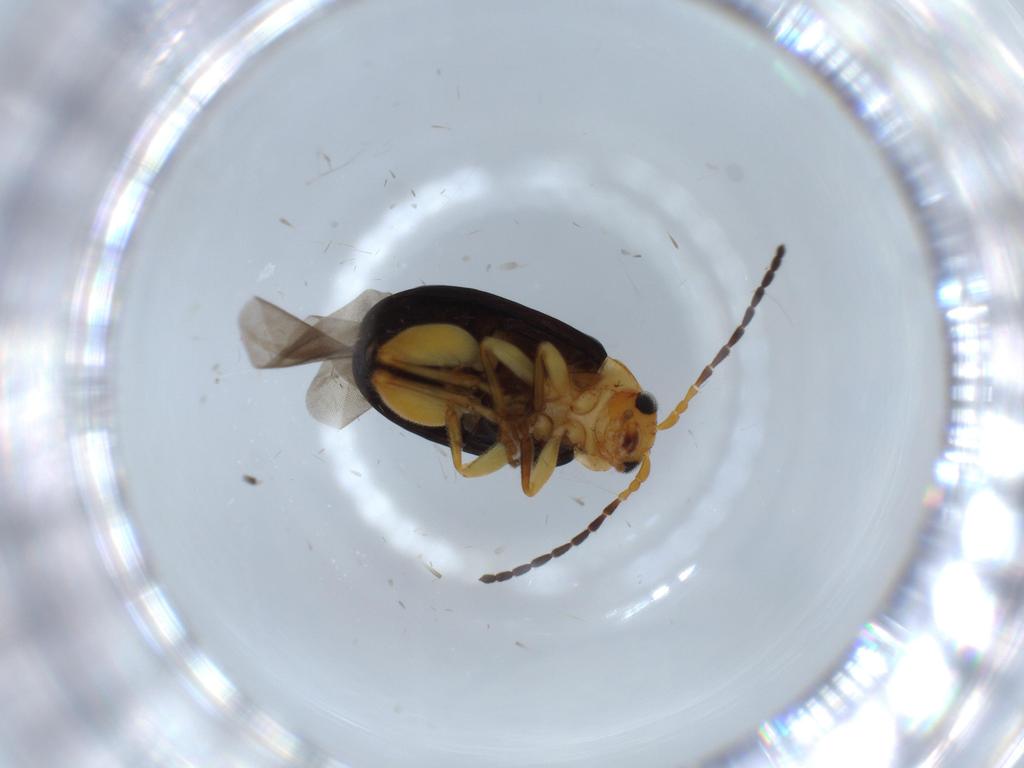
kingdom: Animalia
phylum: Arthropoda
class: Insecta
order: Coleoptera
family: Chrysomelidae
